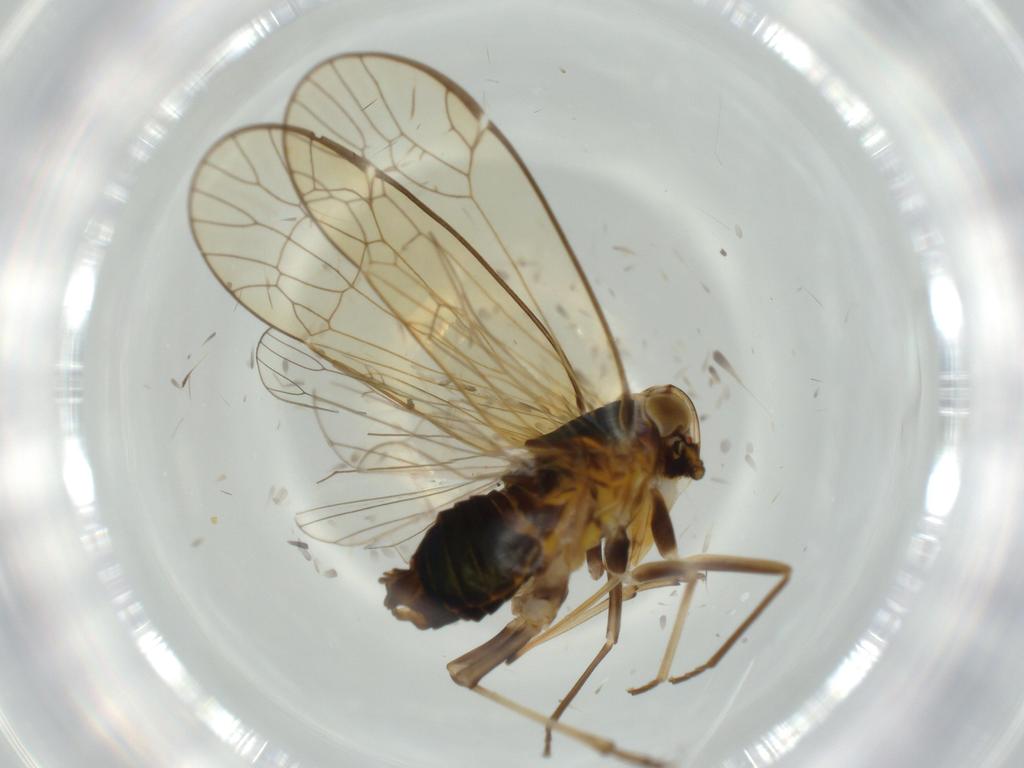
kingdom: Animalia
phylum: Arthropoda
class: Insecta
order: Hemiptera
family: Kinnaridae
